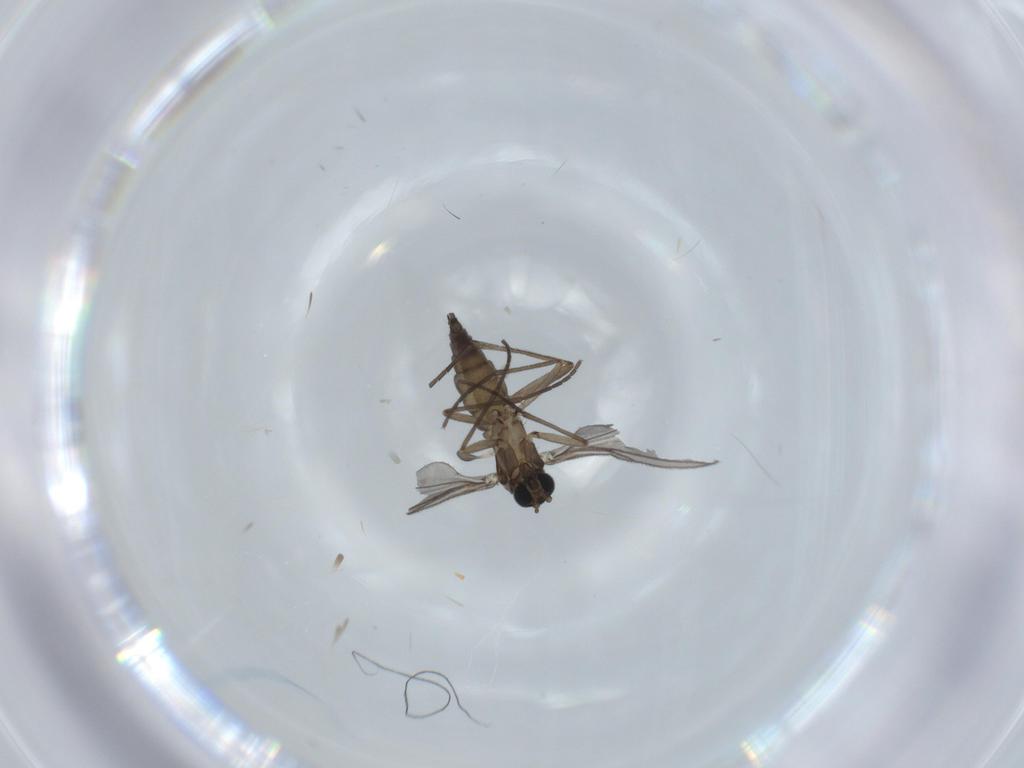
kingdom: Animalia
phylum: Arthropoda
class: Insecta
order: Diptera
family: Sciaridae
